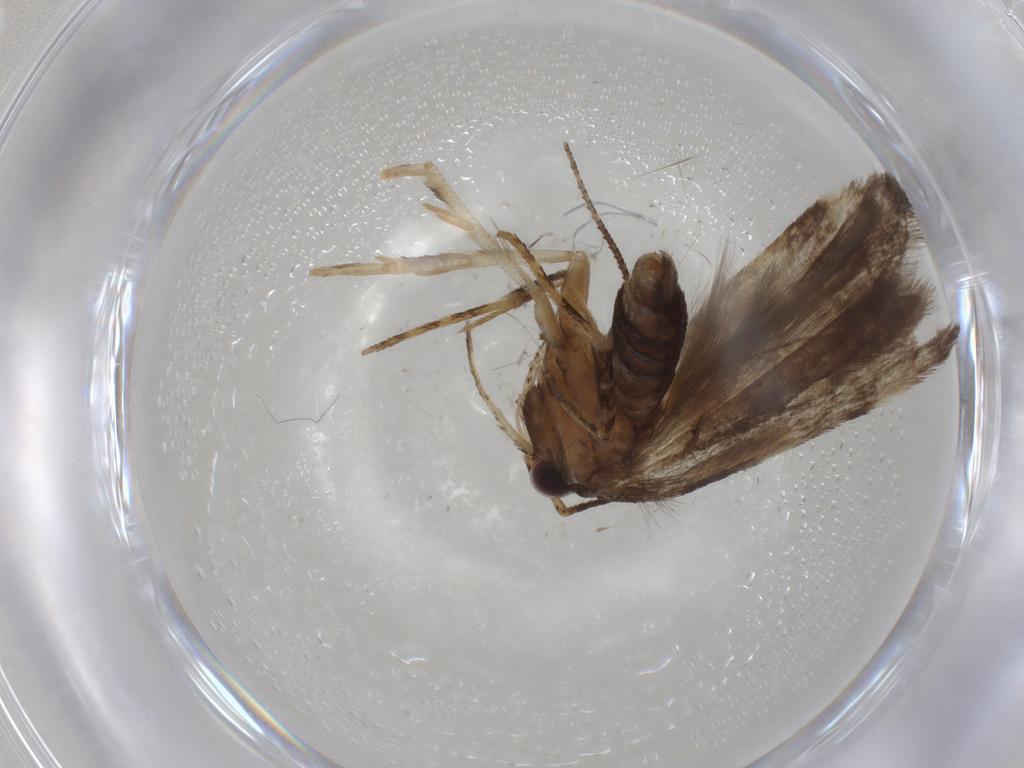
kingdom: Animalia
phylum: Arthropoda
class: Insecta
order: Lepidoptera
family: Gelechiidae
